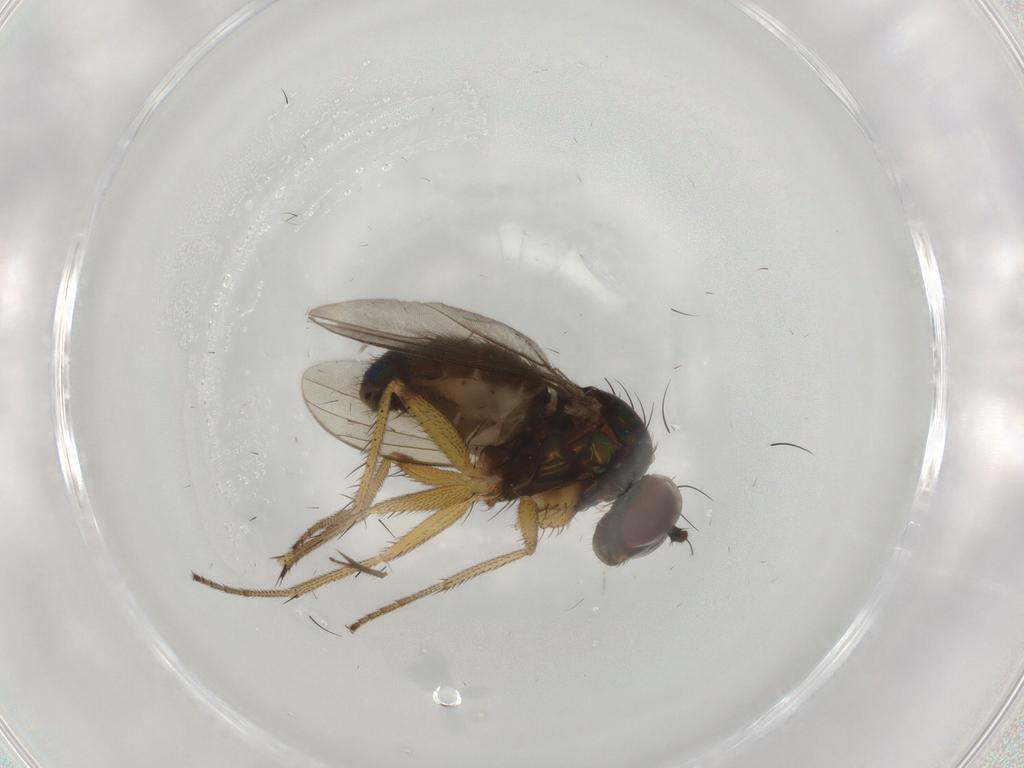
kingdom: Animalia
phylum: Arthropoda
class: Insecta
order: Diptera
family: Dolichopodidae
